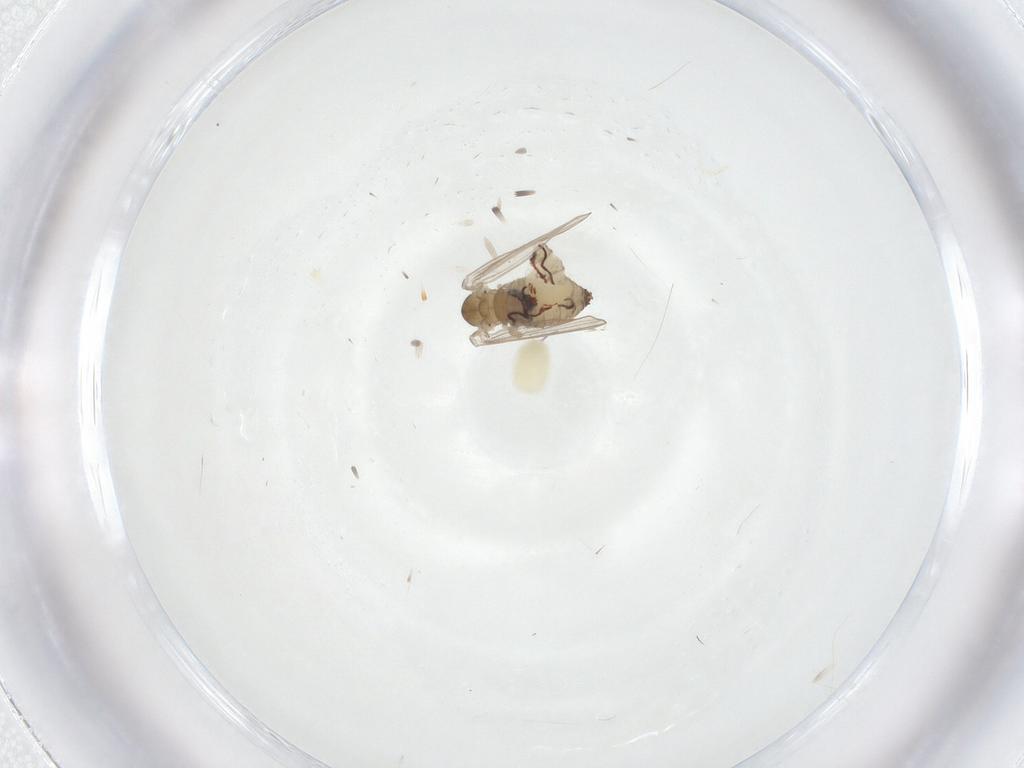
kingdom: Animalia
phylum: Arthropoda
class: Insecta
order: Diptera
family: Psychodidae
